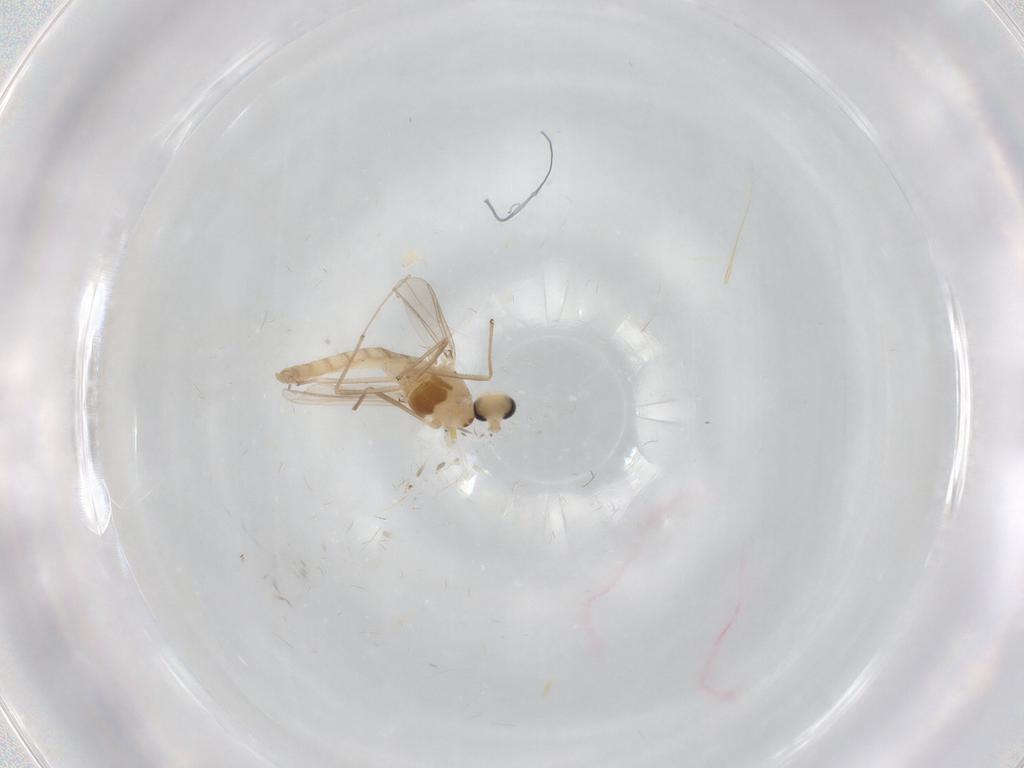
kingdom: Animalia
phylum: Arthropoda
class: Insecta
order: Diptera
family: Chironomidae
